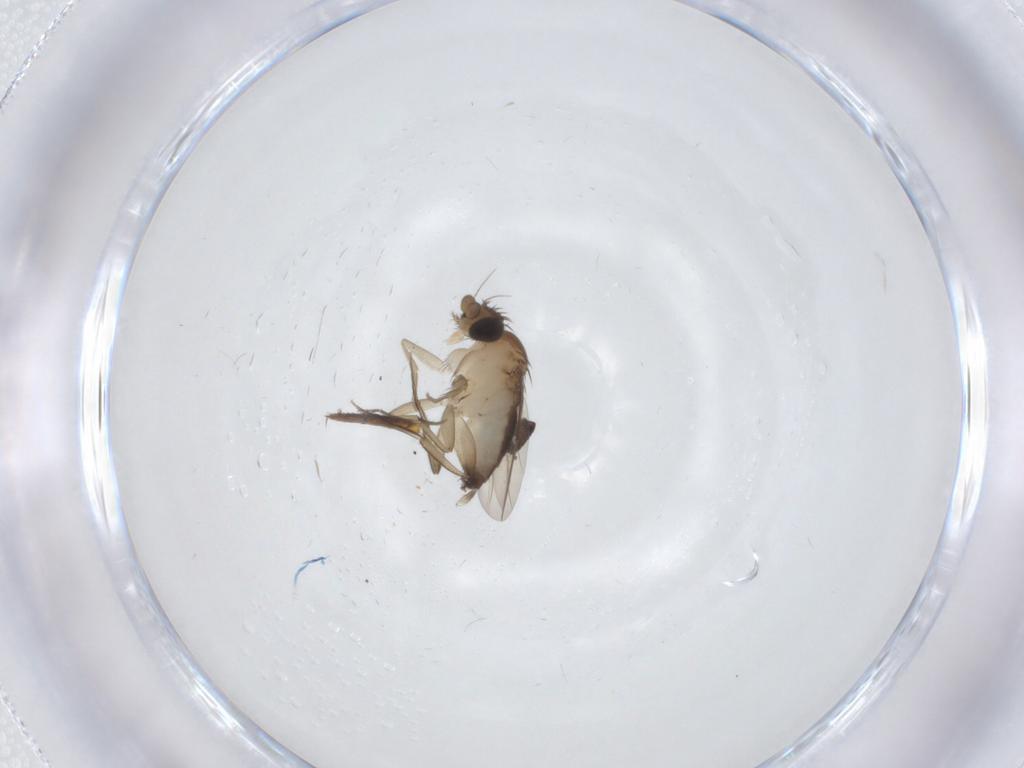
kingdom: Animalia
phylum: Arthropoda
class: Insecta
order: Diptera
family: Phoridae
